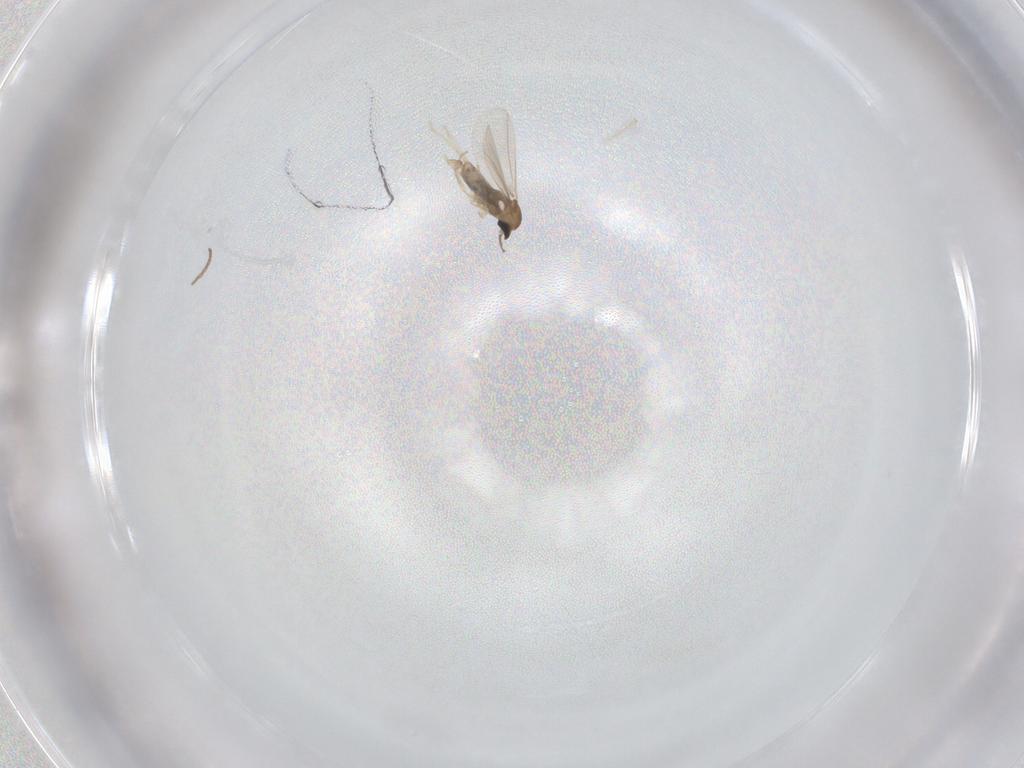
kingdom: Animalia
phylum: Arthropoda
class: Insecta
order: Diptera
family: Cecidomyiidae
